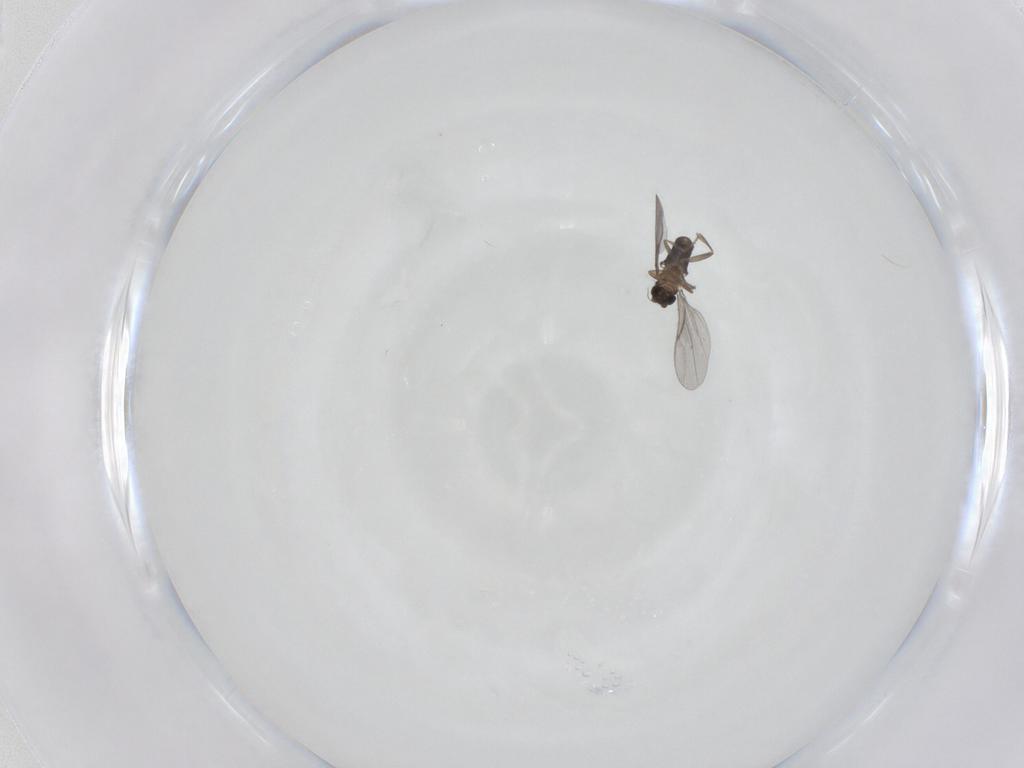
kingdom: Animalia
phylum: Arthropoda
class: Insecta
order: Diptera
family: Phoridae
